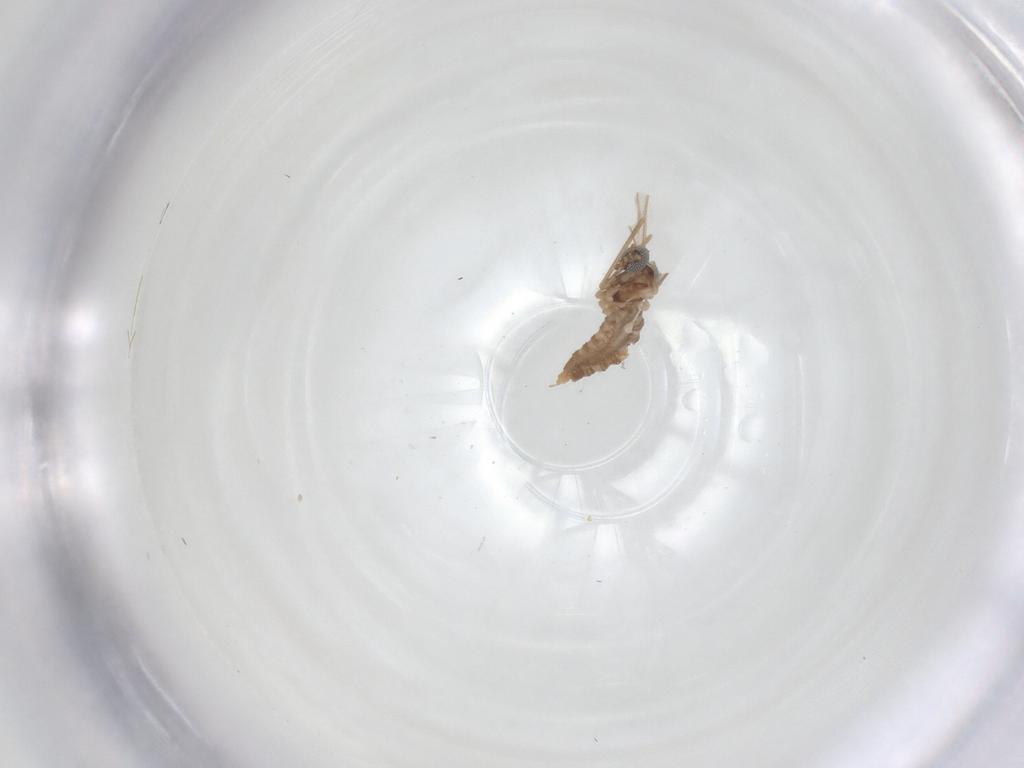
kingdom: Animalia
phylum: Arthropoda
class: Insecta
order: Diptera
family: Cecidomyiidae
